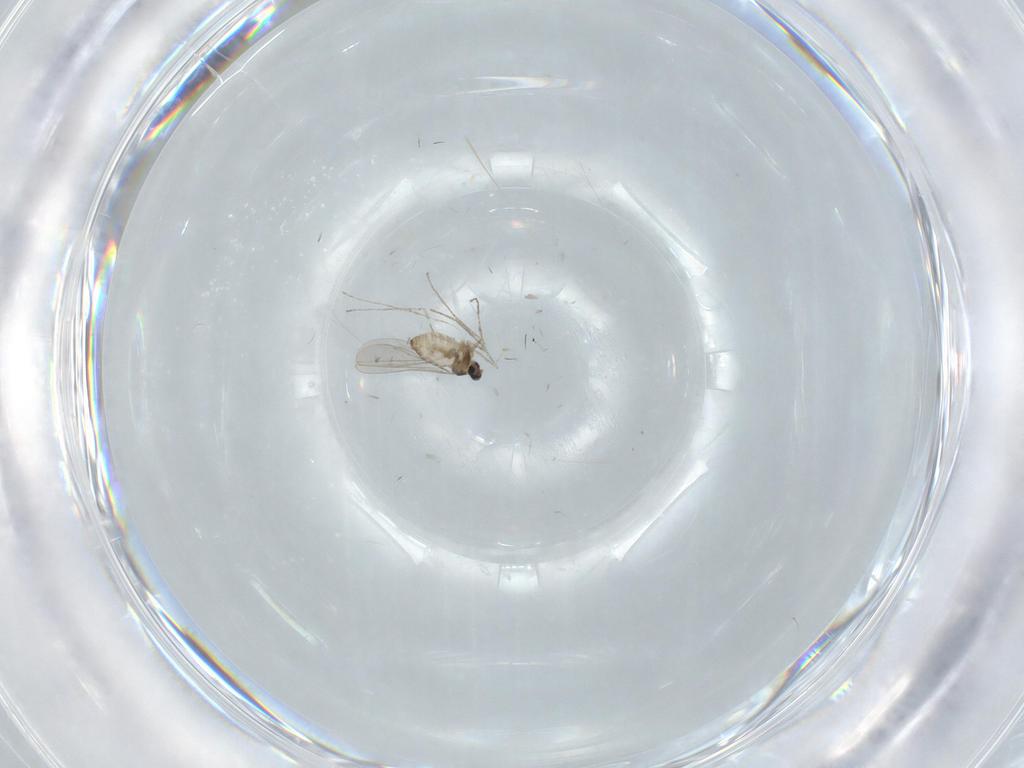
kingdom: Animalia
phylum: Arthropoda
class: Insecta
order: Diptera
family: Cecidomyiidae
